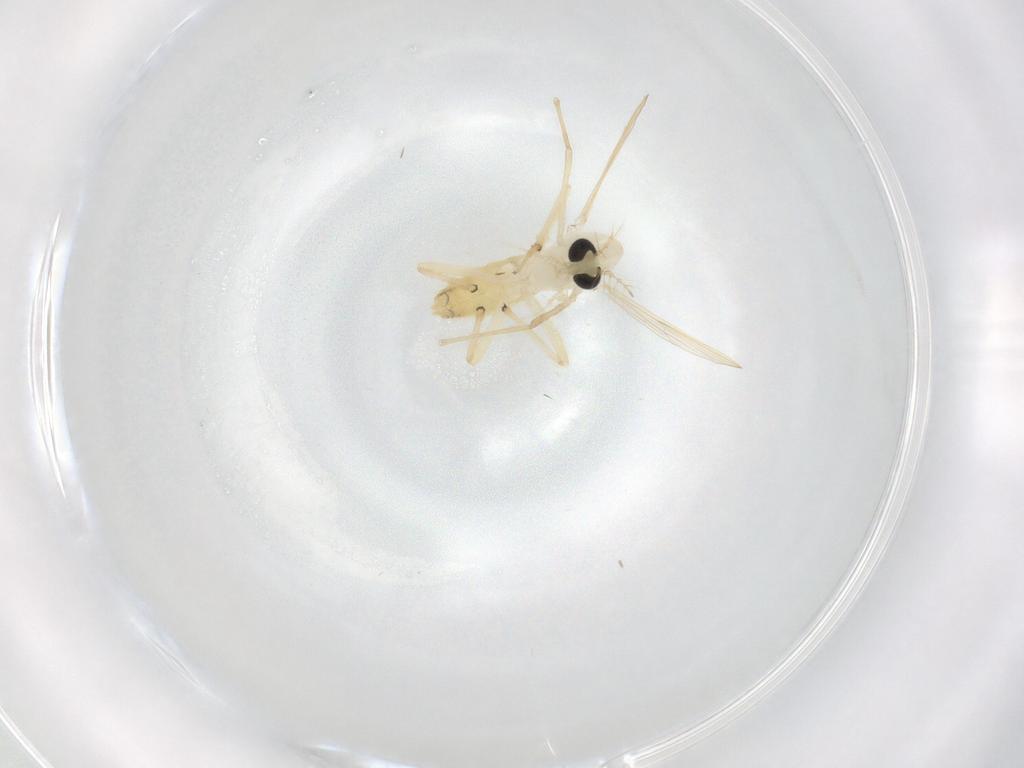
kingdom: Animalia
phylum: Arthropoda
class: Insecta
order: Diptera
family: Chironomidae
